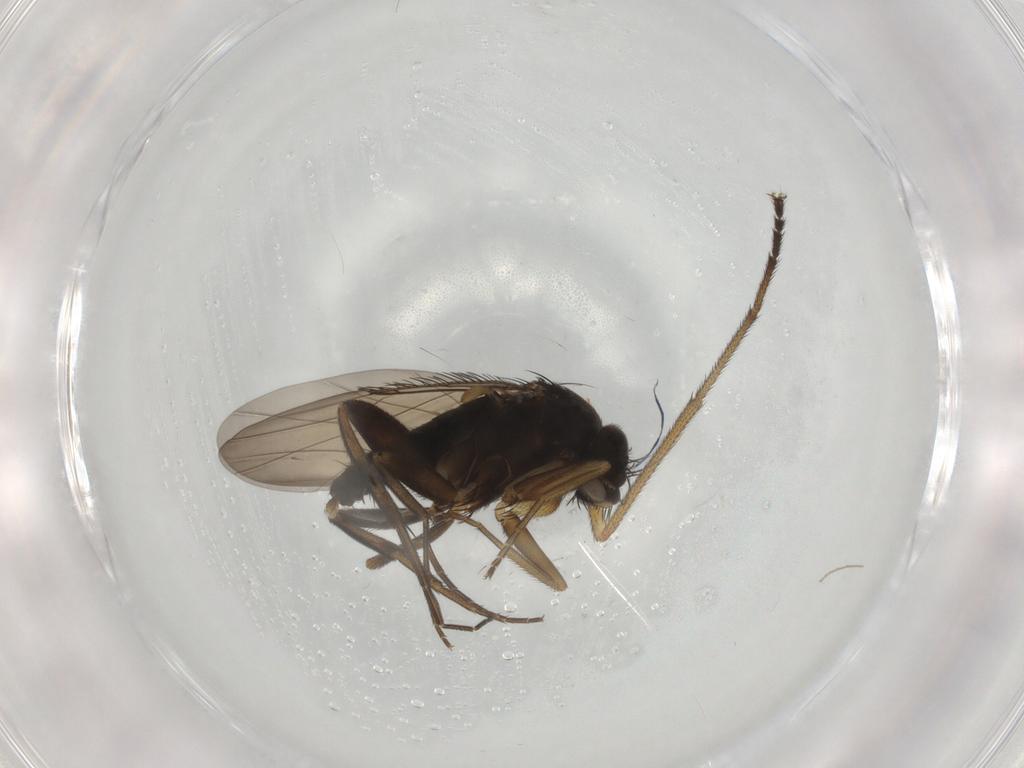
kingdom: Animalia
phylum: Arthropoda
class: Insecta
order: Diptera
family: Phoridae
